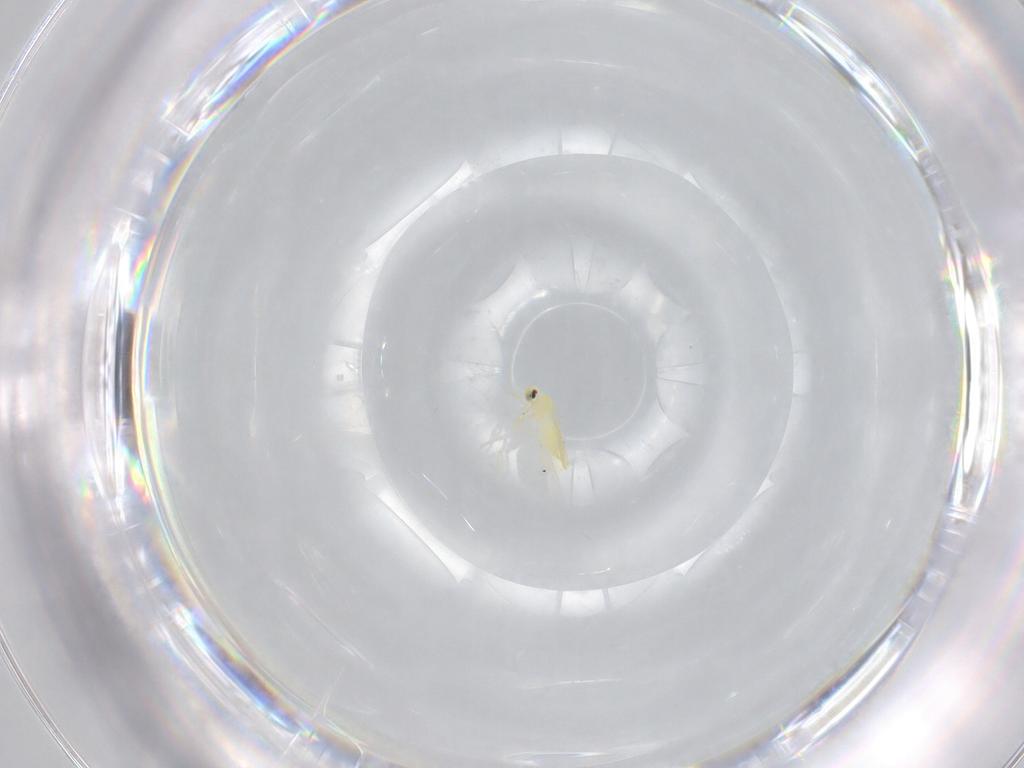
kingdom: Animalia
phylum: Arthropoda
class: Insecta
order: Hemiptera
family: Aleyrodidae
